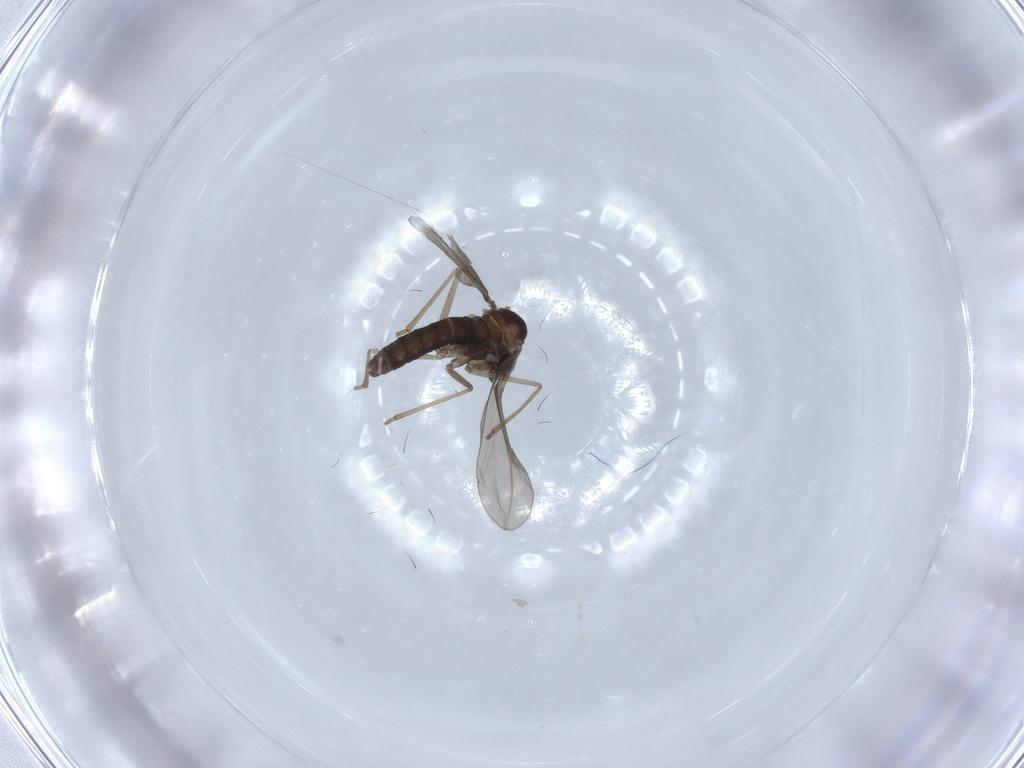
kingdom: Animalia
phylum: Arthropoda
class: Insecta
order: Diptera
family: Cecidomyiidae
